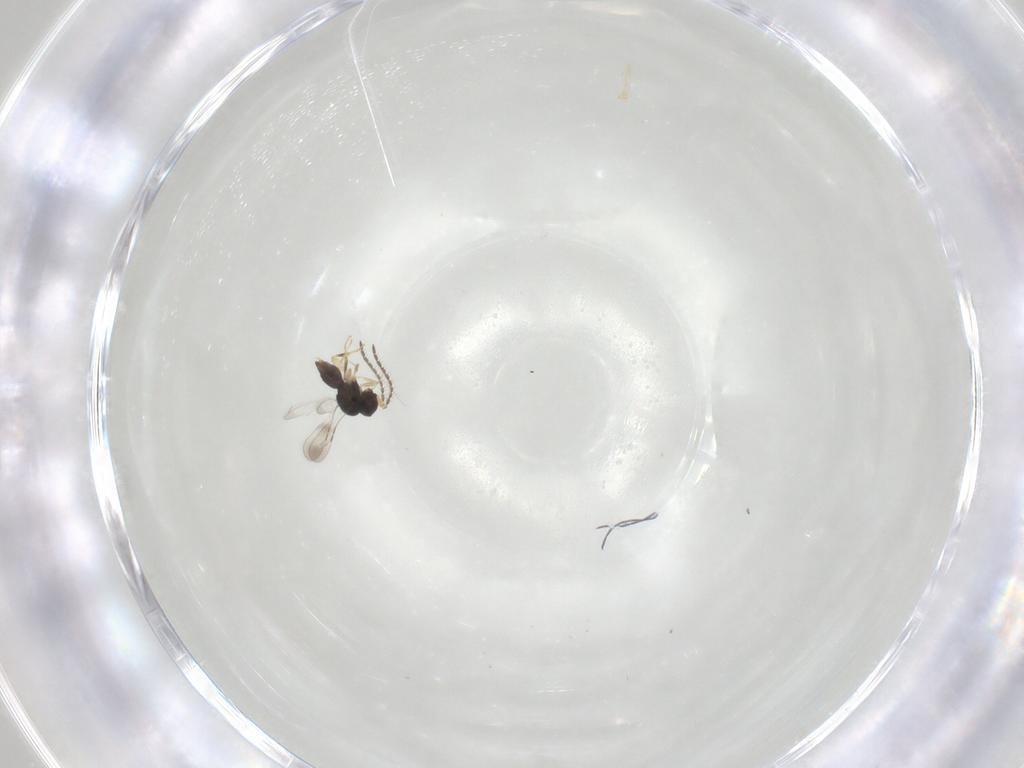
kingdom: Animalia
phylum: Arthropoda
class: Insecta
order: Hymenoptera
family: Ceraphronidae
